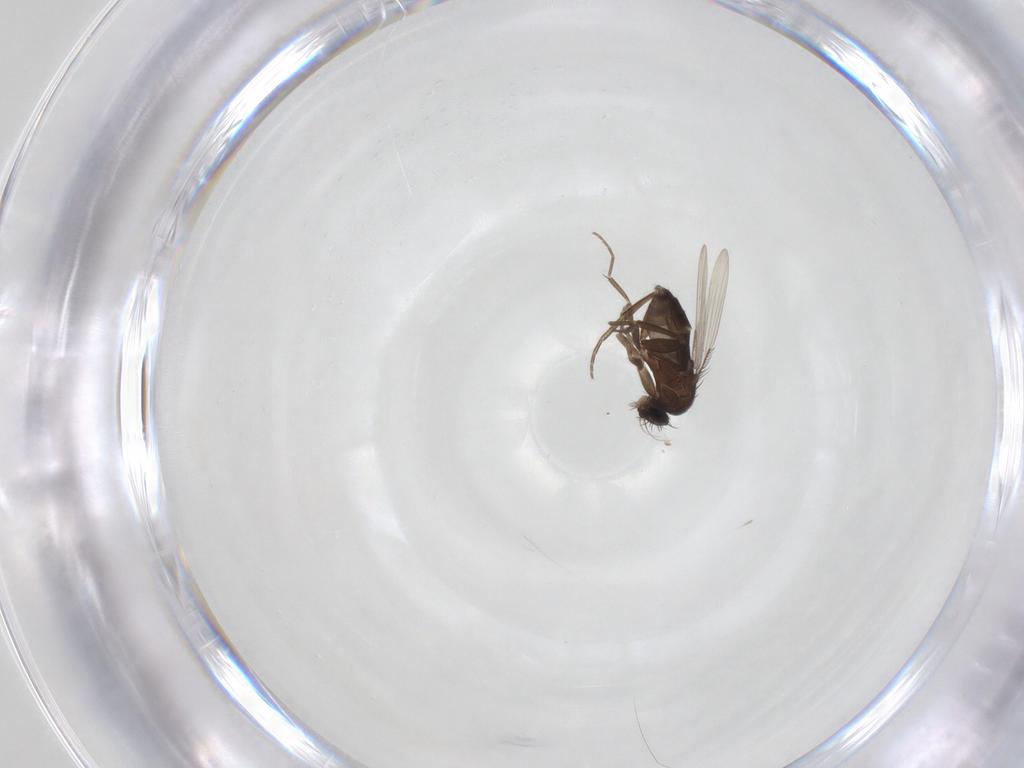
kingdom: Animalia
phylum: Arthropoda
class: Insecta
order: Diptera
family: Phoridae
